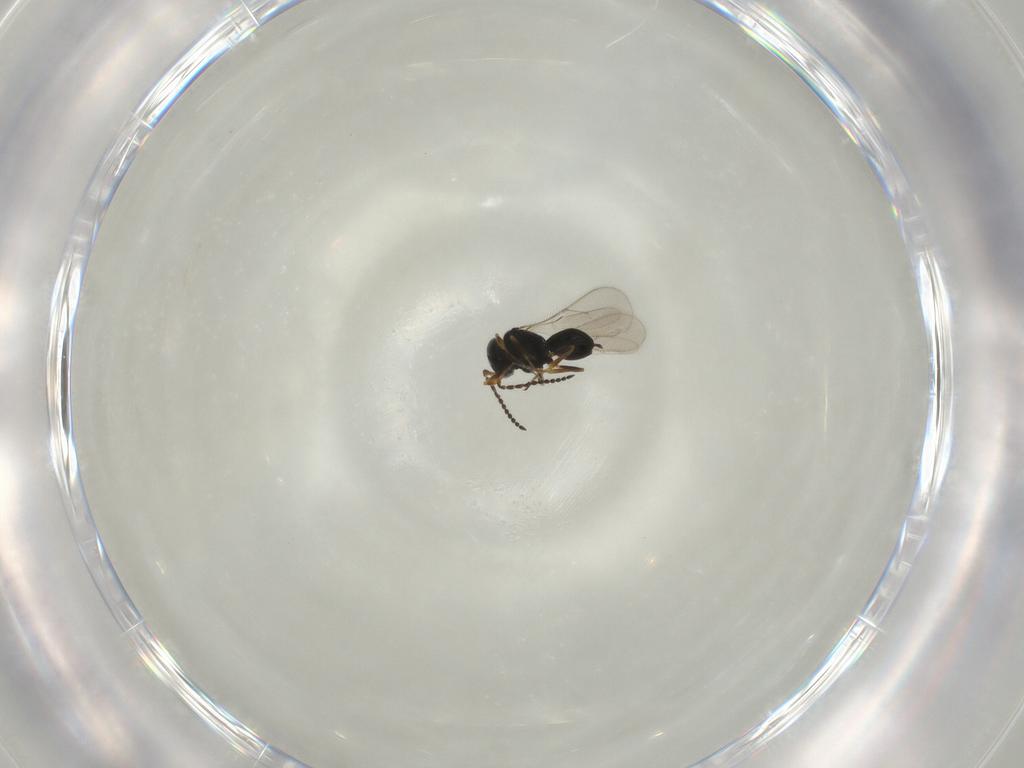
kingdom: Animalia
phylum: Arthropoda
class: Insecta
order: Hymenoptera
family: Scelionidae
